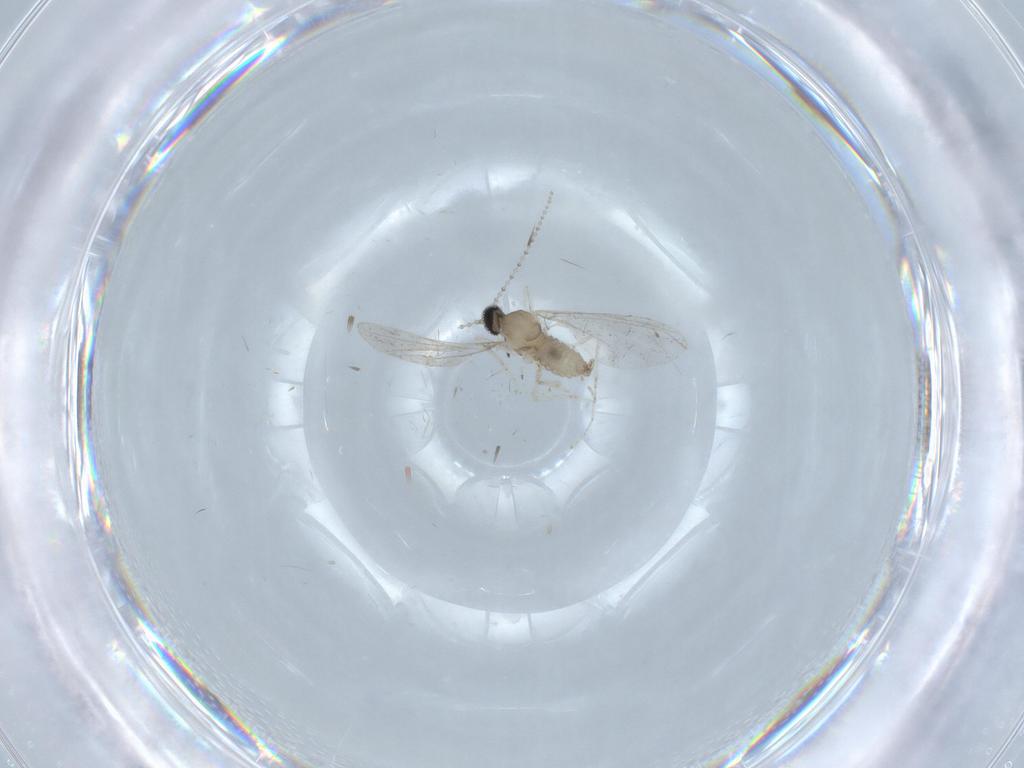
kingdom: Animalia
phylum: Arthropoda
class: Insecta
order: Diptera
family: Cecidomyiidae
